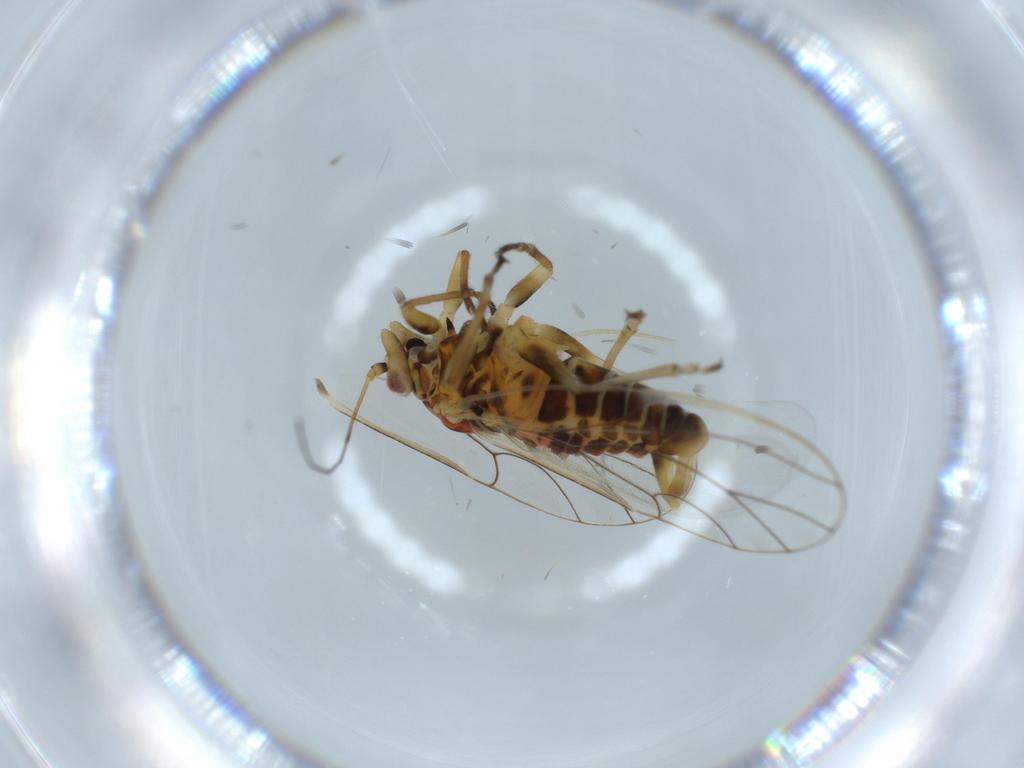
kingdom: Animalia
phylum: Arthropoda
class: Insecta
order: Hemiptera
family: Psyllidae
